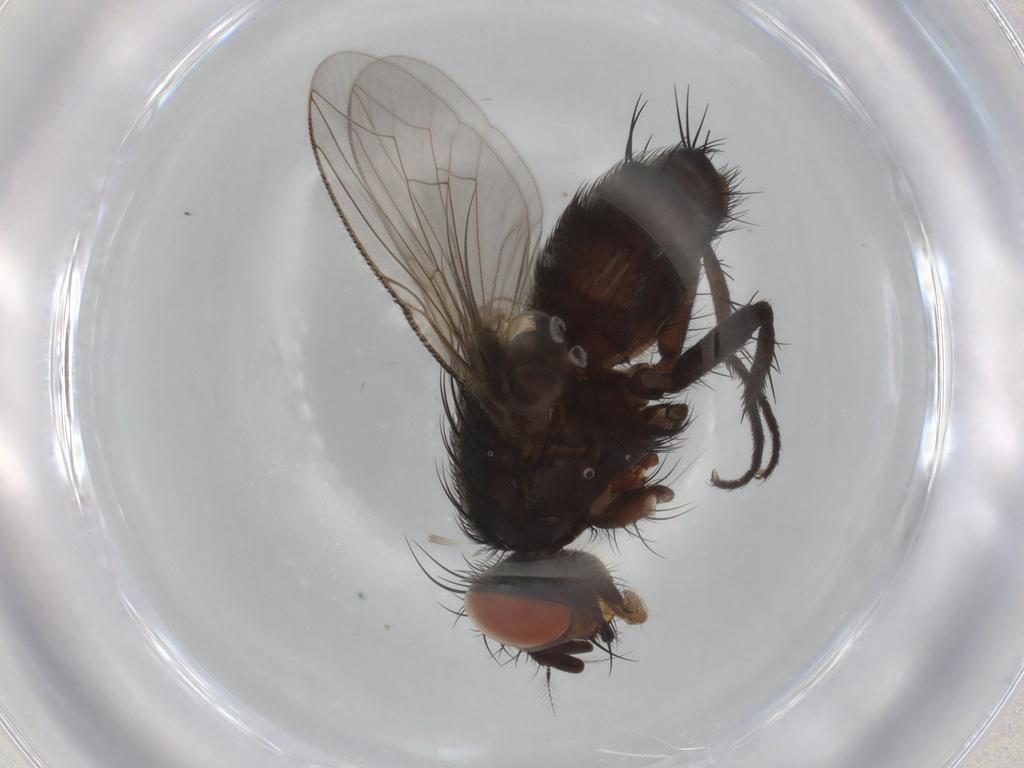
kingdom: Animalia
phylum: Arthropoda
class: Insecta
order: Diptera
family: Sarcophagidae
